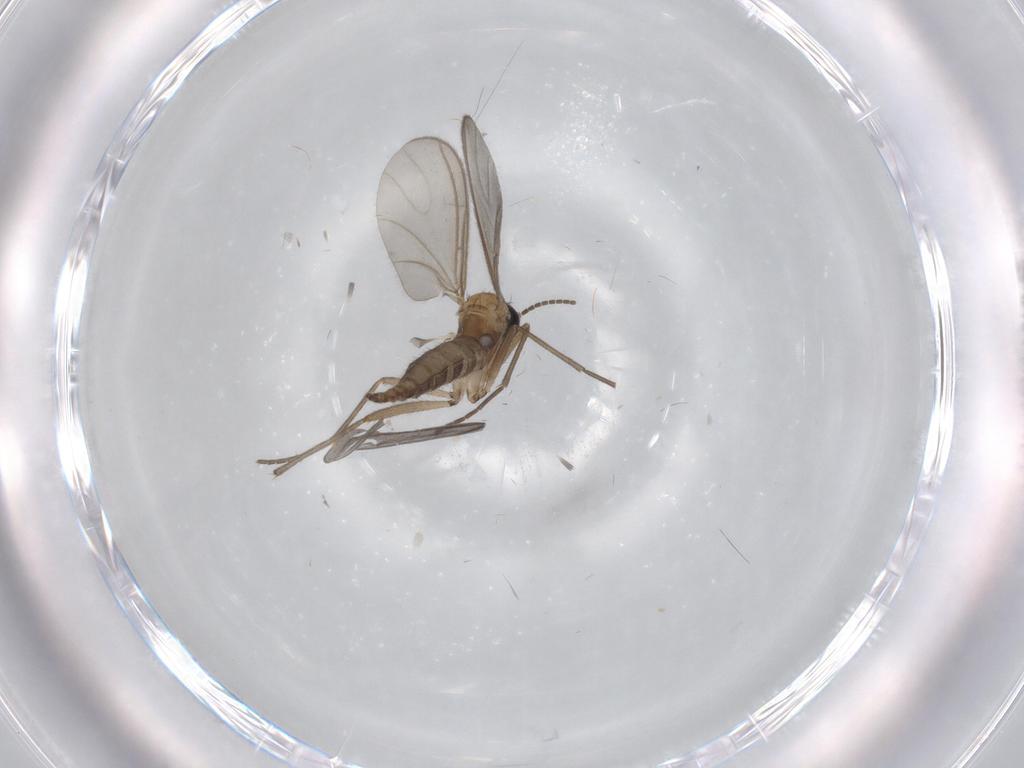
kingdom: Animalia
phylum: Arthropoda
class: Insecta
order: Diptera
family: Sciaridae
